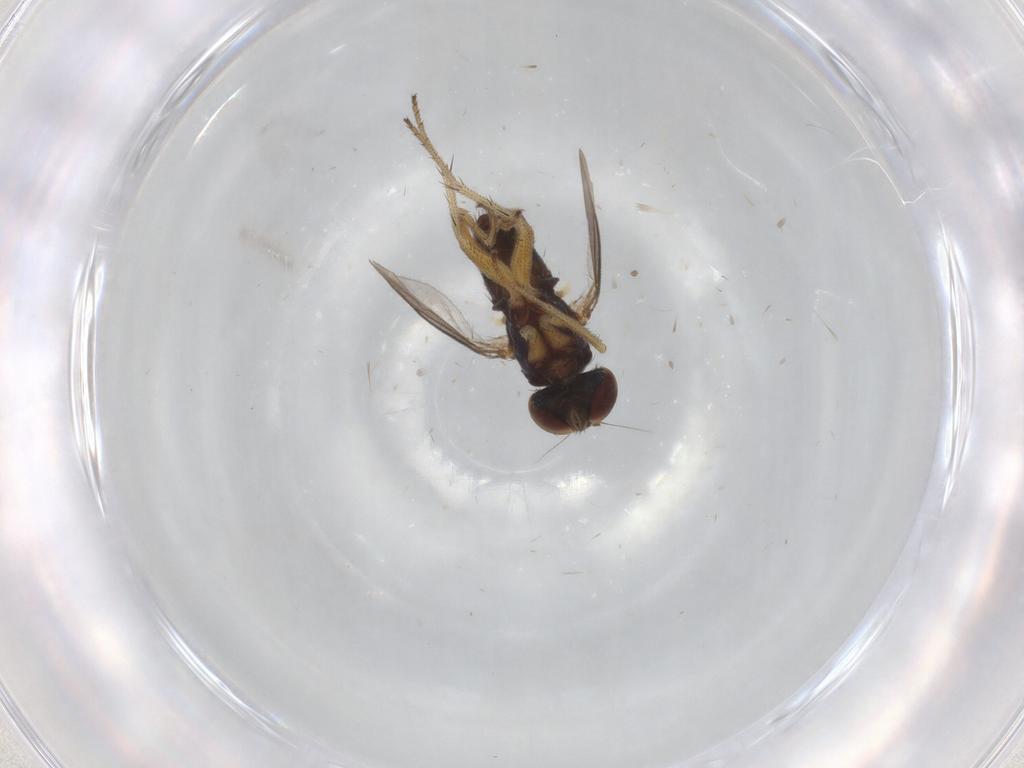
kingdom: Animalia
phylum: Arthropoda
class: Insecta
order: Diptera
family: Dolichopodidae
